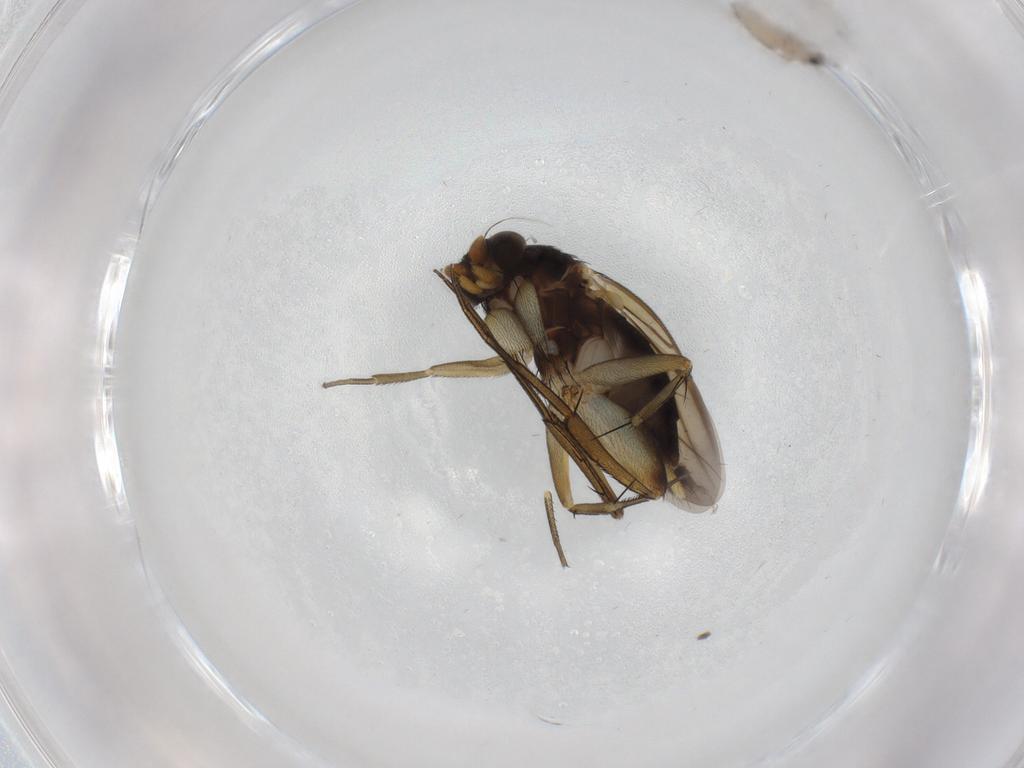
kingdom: Animalia
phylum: Arthropoda
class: Insecta
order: Diptera
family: Phoridae
